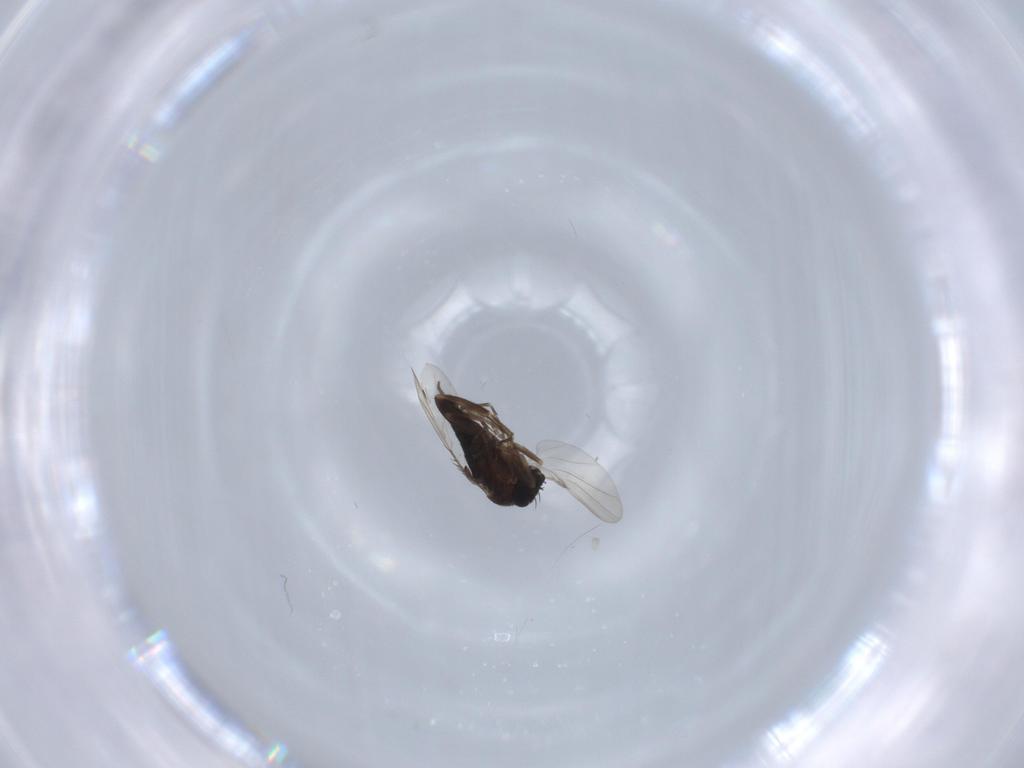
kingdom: Animalia
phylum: Arthropoda
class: Insecta
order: Diptera
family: Phoridae
